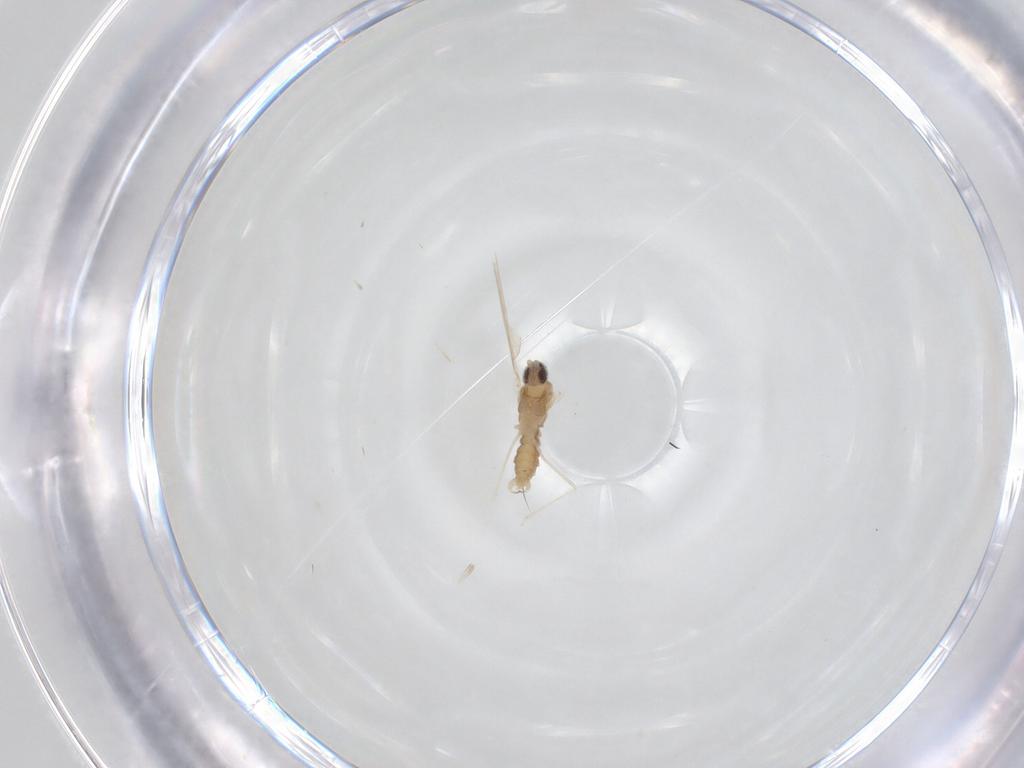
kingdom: Animalia
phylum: Arthropoda
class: Insecta
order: Diptera
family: Cecidomyiidae
